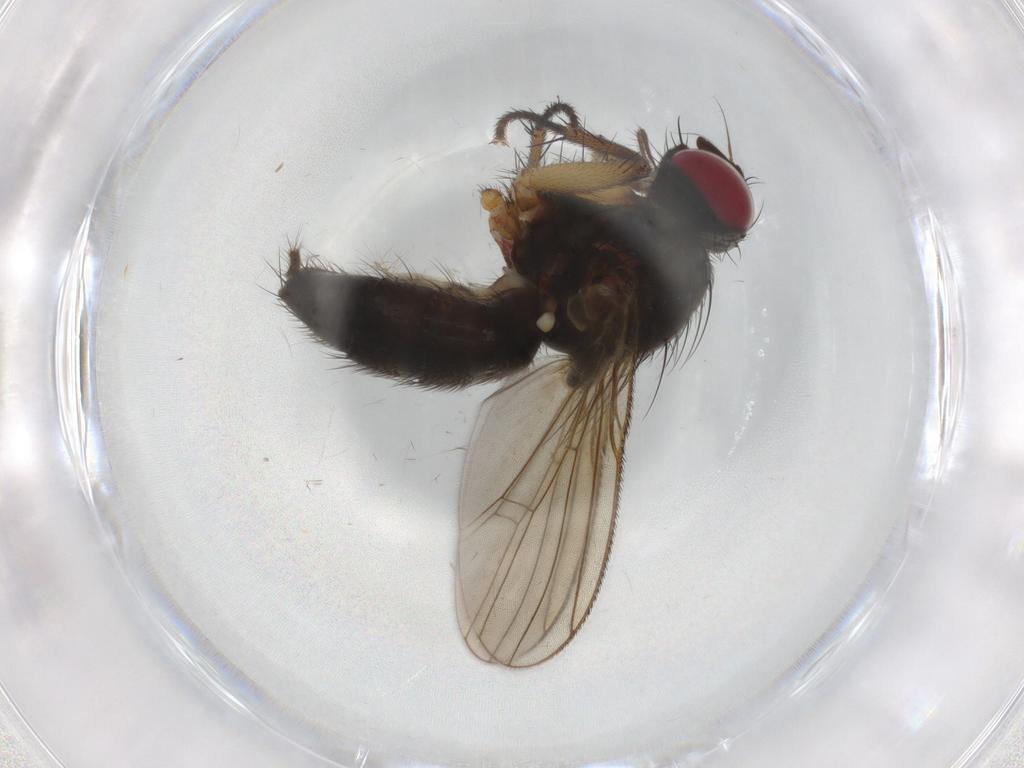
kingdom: Animalia
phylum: Arthropoda
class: Insecta
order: Diptera
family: Muscidae
